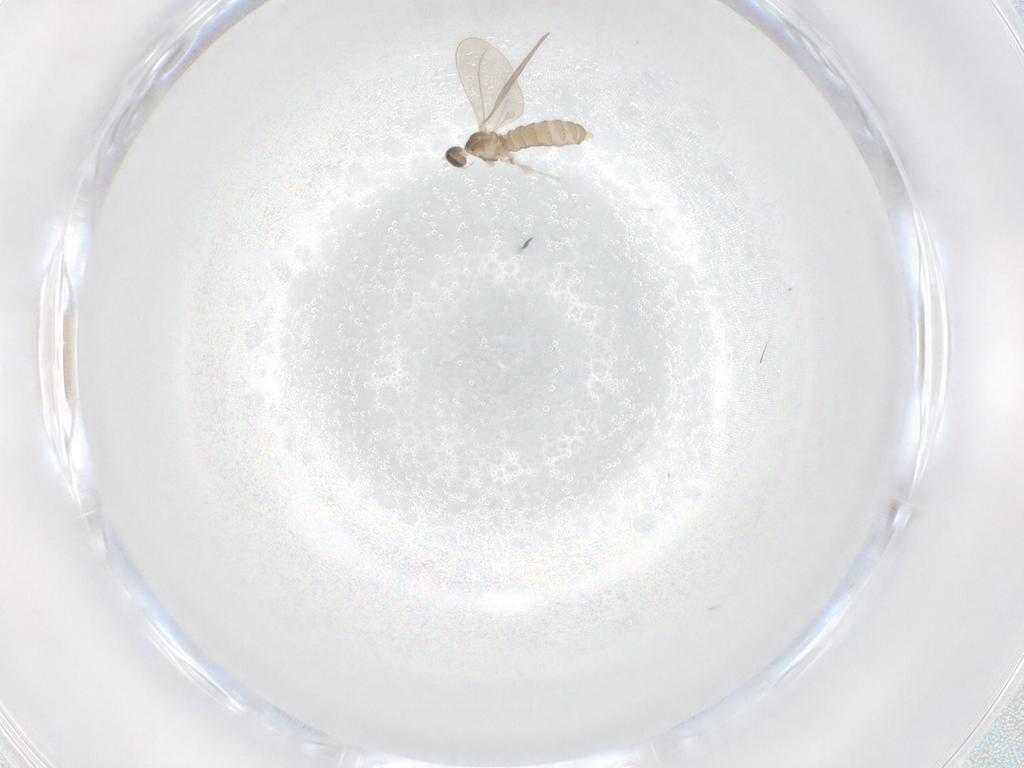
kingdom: Animalia
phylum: Arthropoda
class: Insecta
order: Diptera
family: Cecidomyiidae
